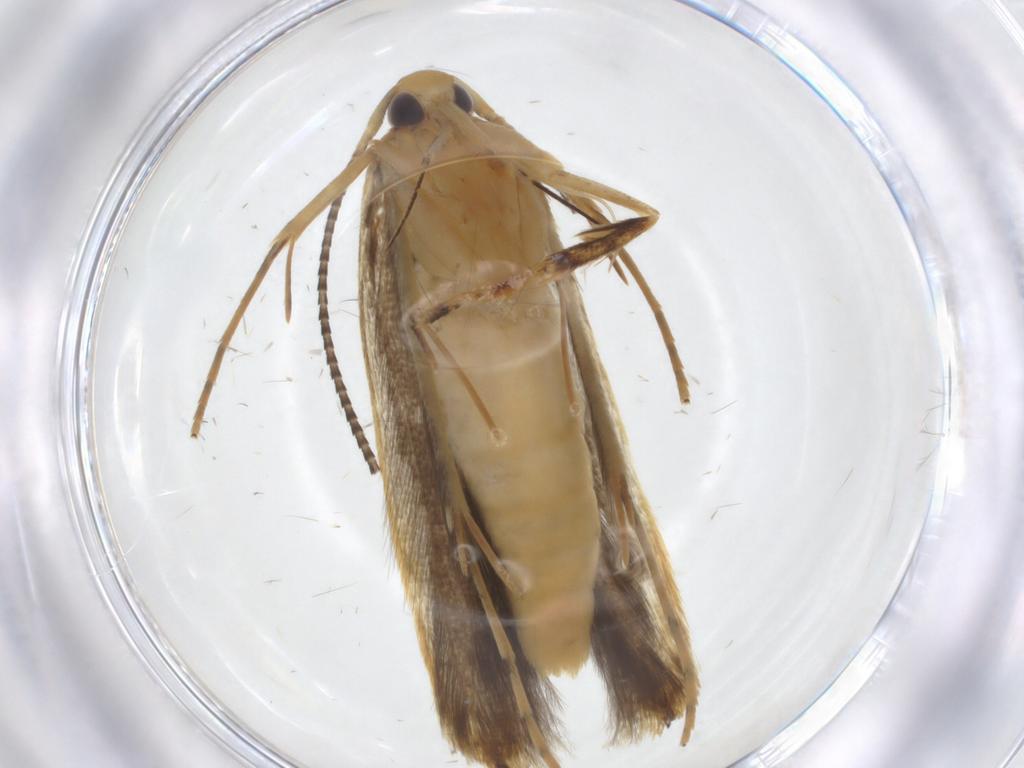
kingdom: Animalia
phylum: Arthropoda
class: Insecta
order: Lepidoptera
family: Pterolonchidae
